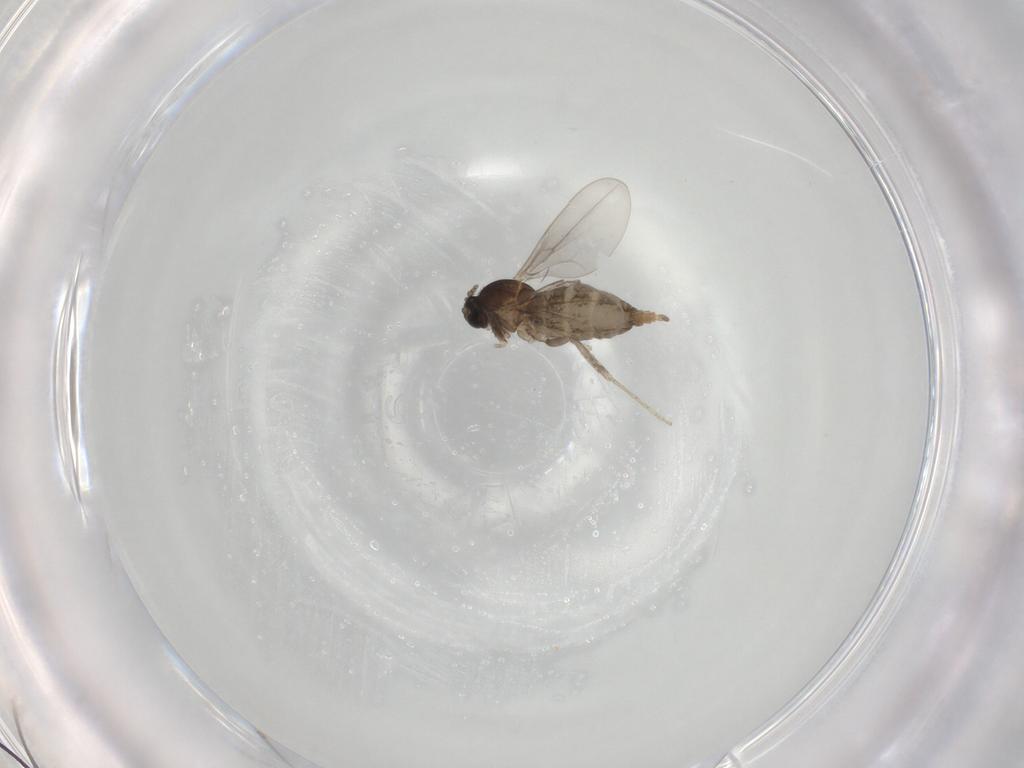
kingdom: Animalia
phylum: Arthropoda
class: Insecta
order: Diptera
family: Cecidomyiidae
